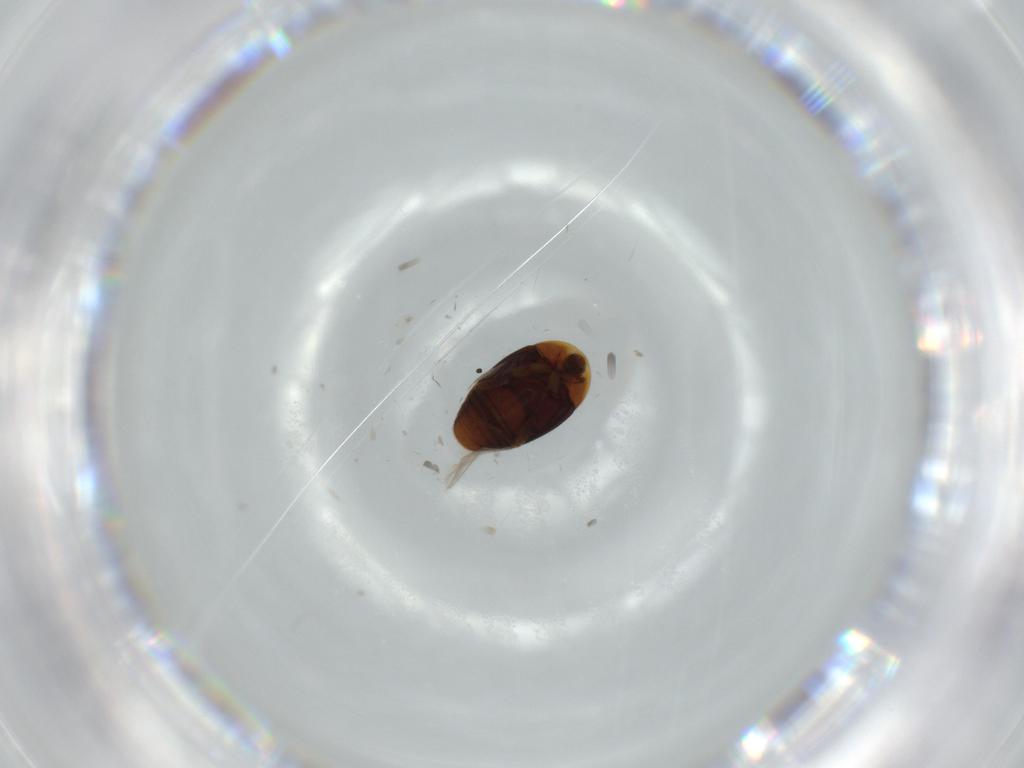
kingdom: Animalia
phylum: Arthropoda
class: Insecta
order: Coleoptera
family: Corylophidae
